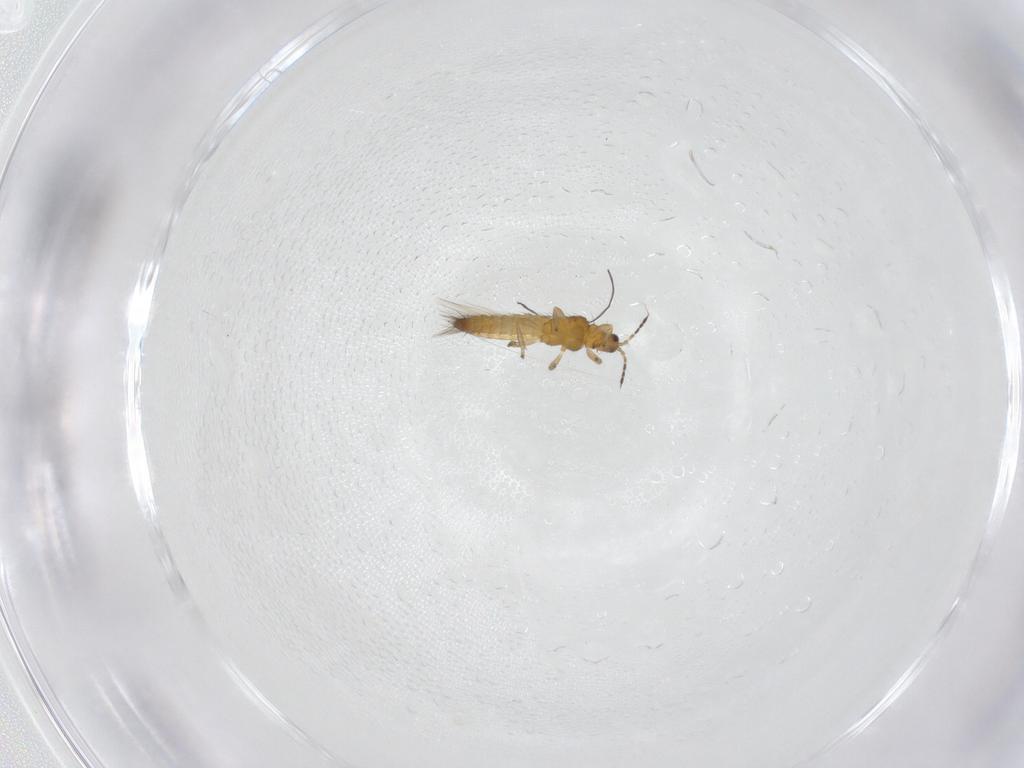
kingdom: Animalia
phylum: Arthropoda
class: Insecta
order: Thysanoptera
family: Thripidae
